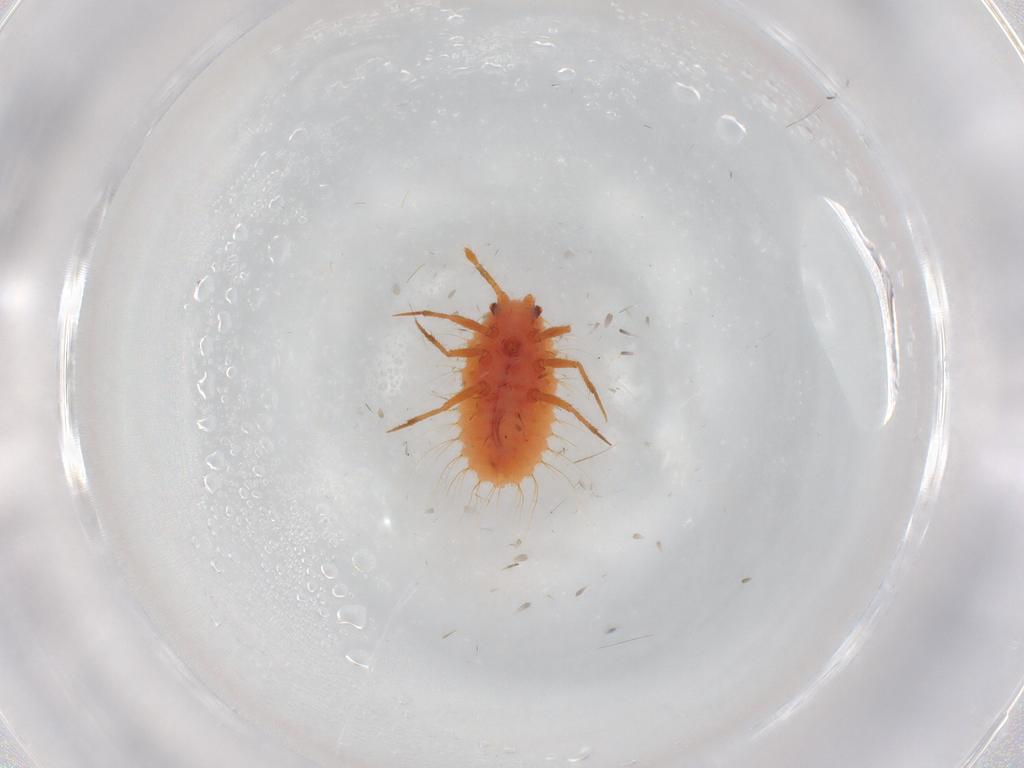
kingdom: Animalia
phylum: Arthropoda
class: Insecta
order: Hemiptera
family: Coccoidea_incertae_sedis
